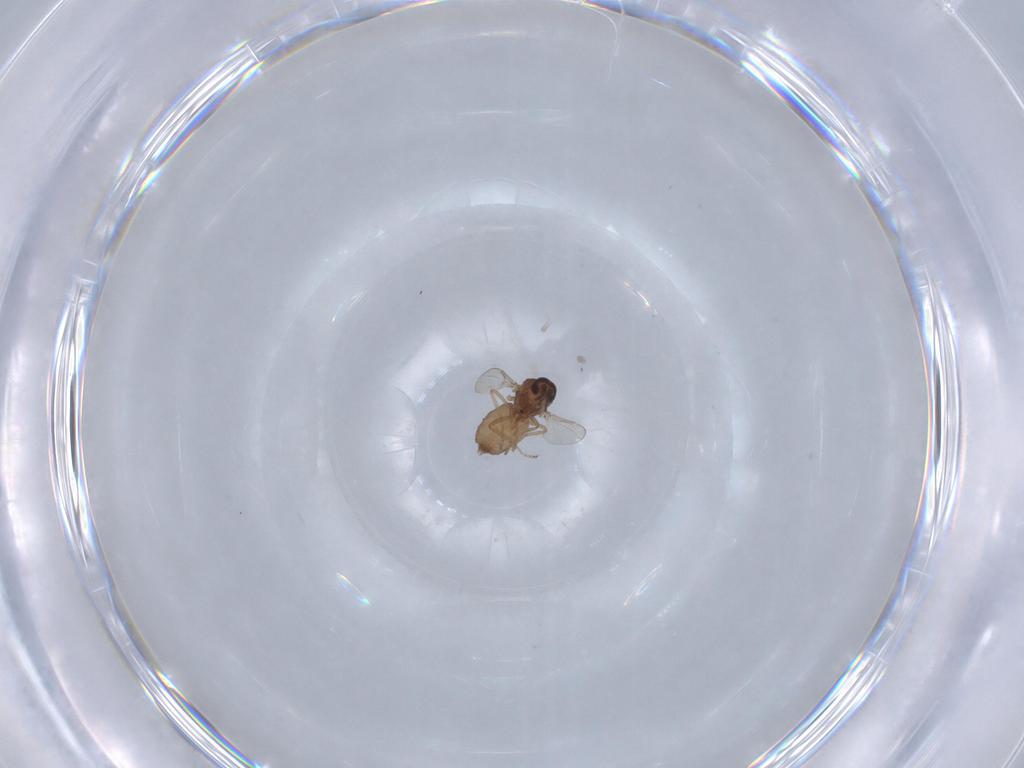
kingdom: Animalia
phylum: Arthropoda
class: Insecta
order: Diptera
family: Ceratopogonidae
